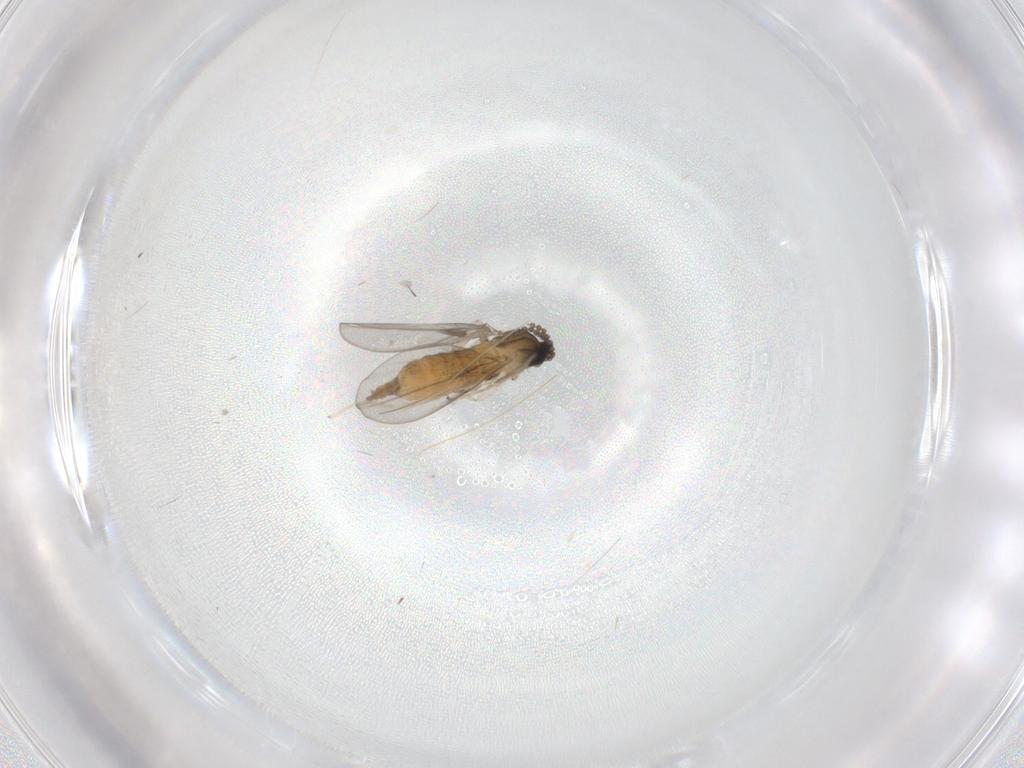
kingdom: Animalia
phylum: Arthropoda
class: Insecta
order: Diptera
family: Cecidomyiidae
